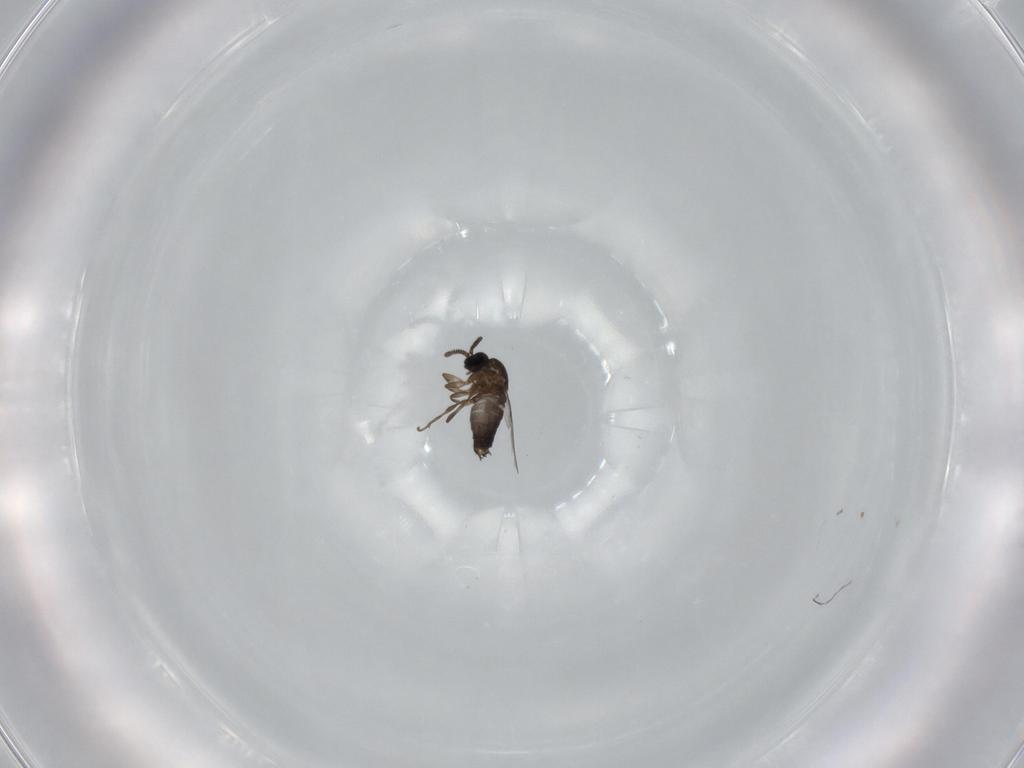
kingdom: Animalia
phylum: Arthropoda
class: Insecta
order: Diptera
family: Scatopsidae
